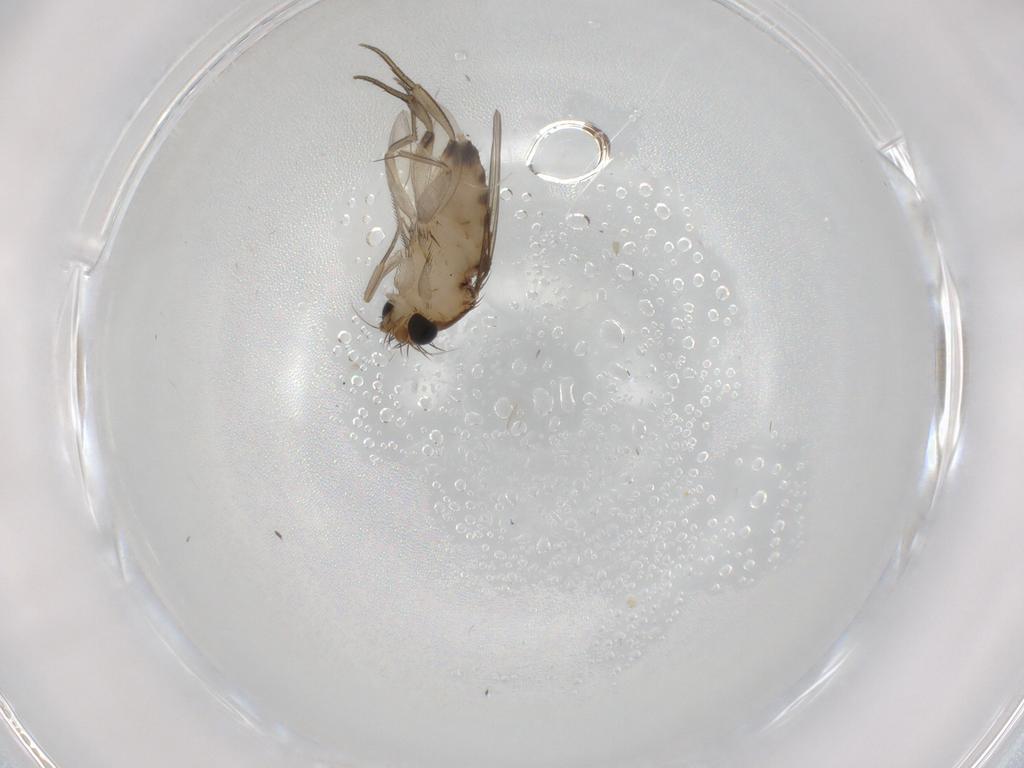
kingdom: Animalia
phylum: Arthropoda
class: Insecta
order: Diptera
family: Phoridae
